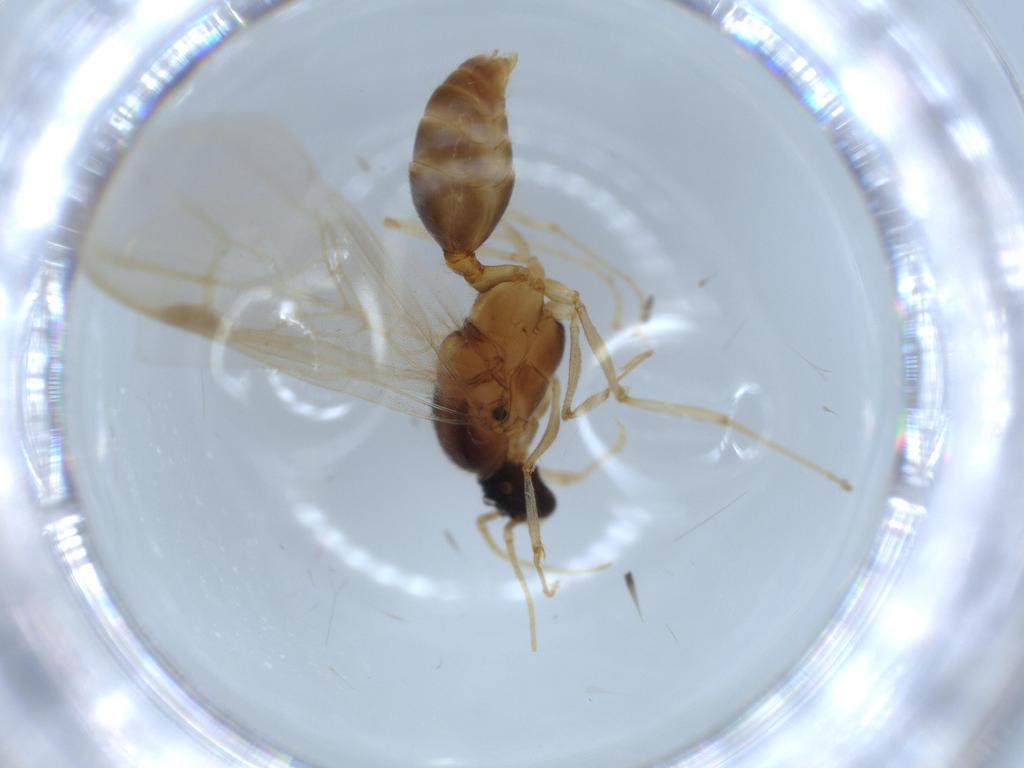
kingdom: Animalia
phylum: Arthropoda
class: Insecta
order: Hymenoptera
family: Formicidae
